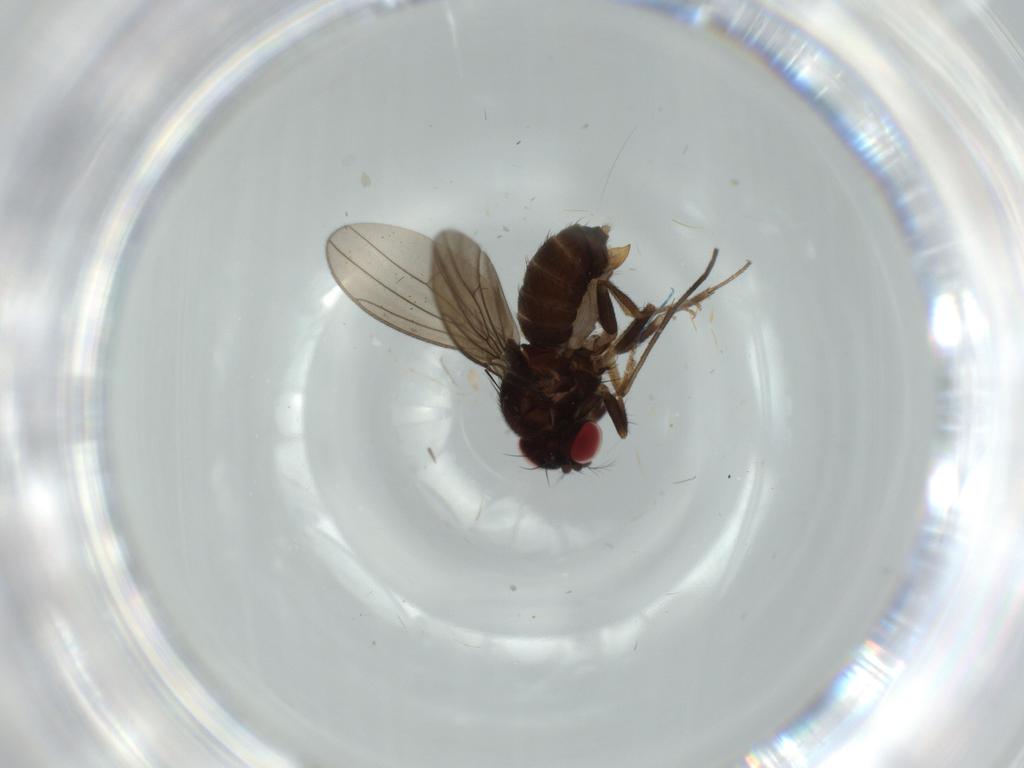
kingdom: Animalia
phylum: Arthropoda
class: Insecta
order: Diptera
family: Drosophilidae
